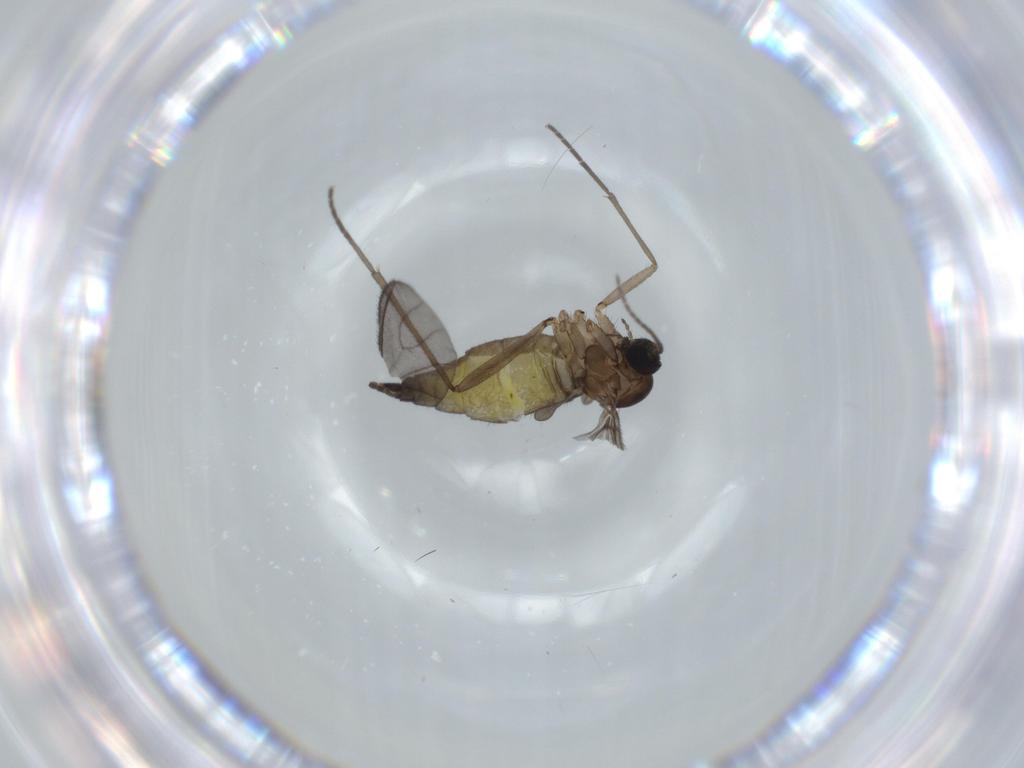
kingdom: Animalia
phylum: Arthropoda
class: Insecta
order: Diptera
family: Sciaridae
